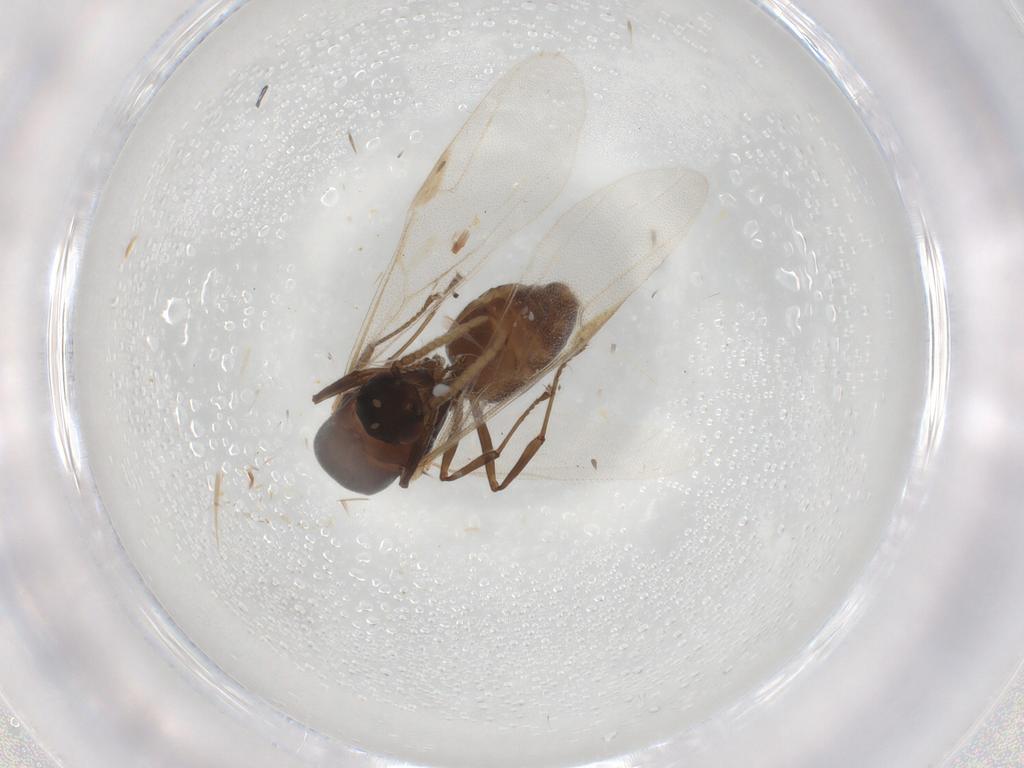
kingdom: Animalia
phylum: Arthropoda
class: Insecta
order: Hymenoptera
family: Formicidae
